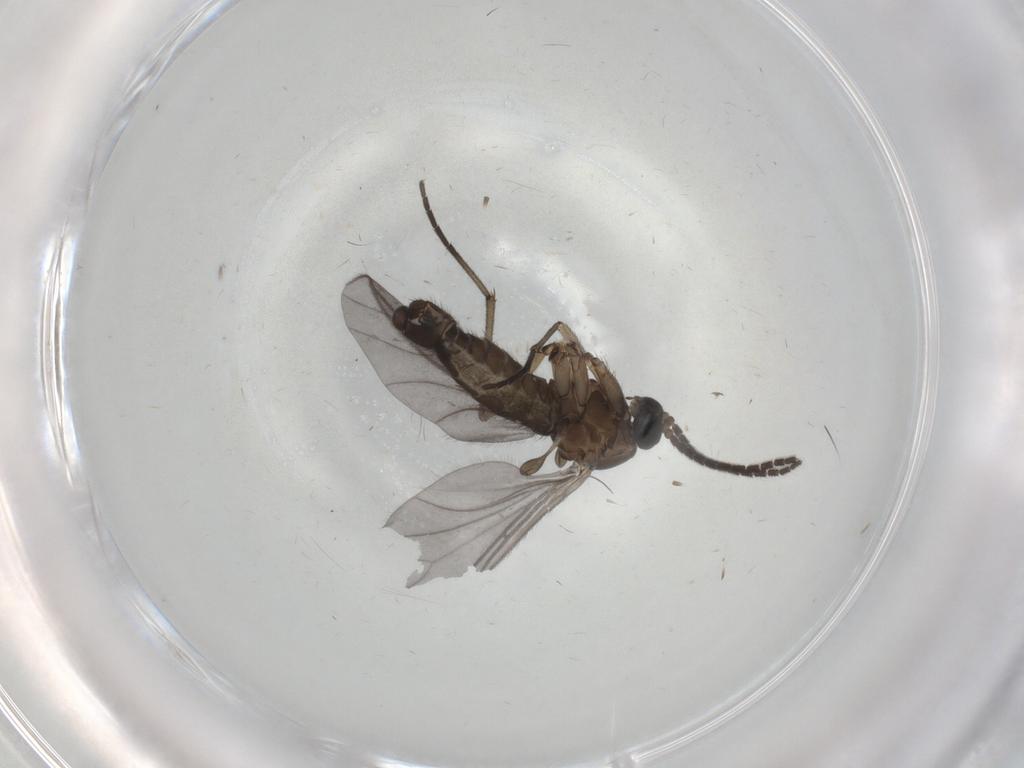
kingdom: Animalia
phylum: Arthropoda
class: Insecta
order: Diptera
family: Sciaridae
